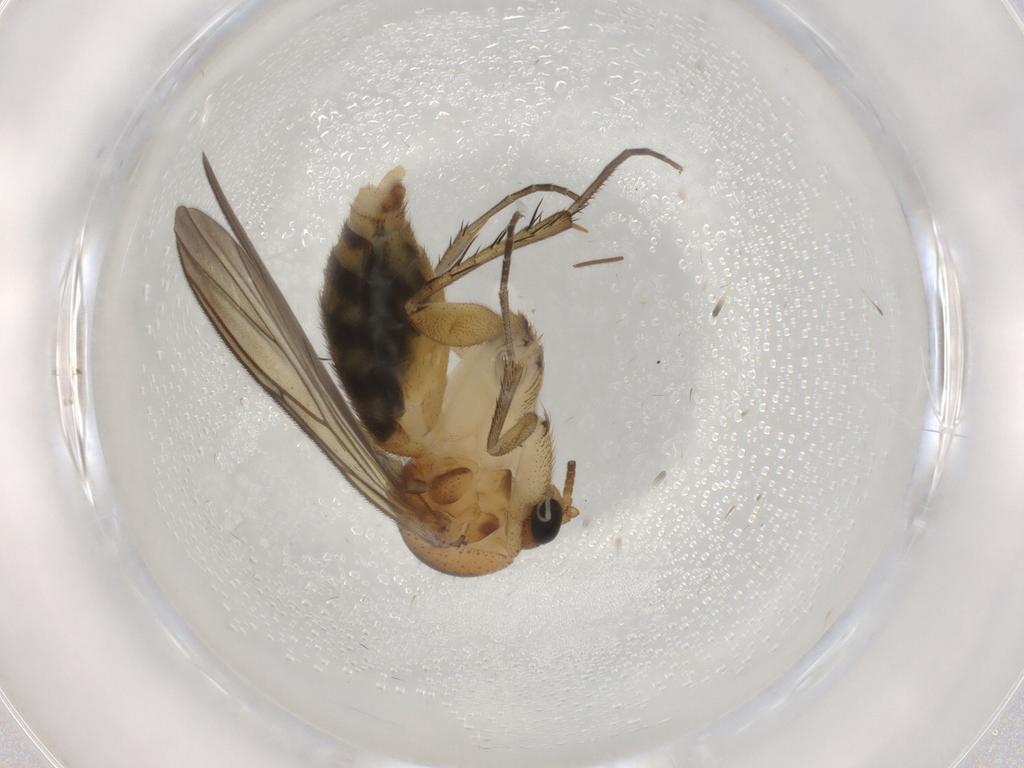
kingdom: Animalia
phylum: Arthropoda
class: Insecta
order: Diptera
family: Mycetophilidae
